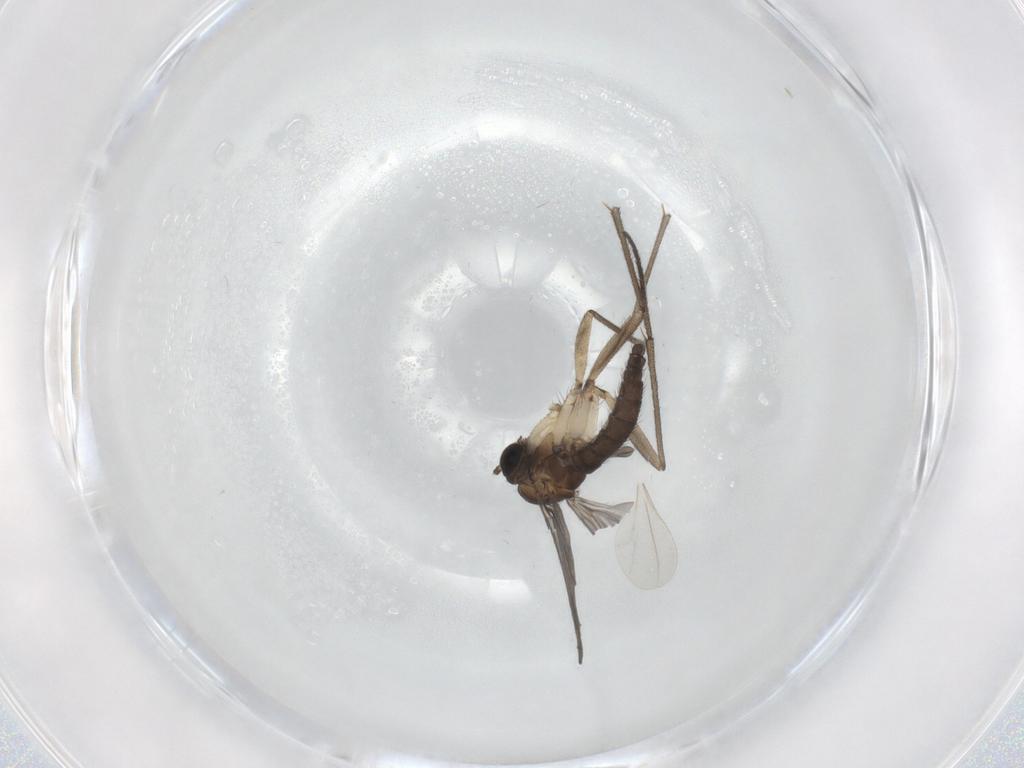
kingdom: Animalia
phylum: Arthropoda
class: Insecta
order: Diptera
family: Sciaridae
